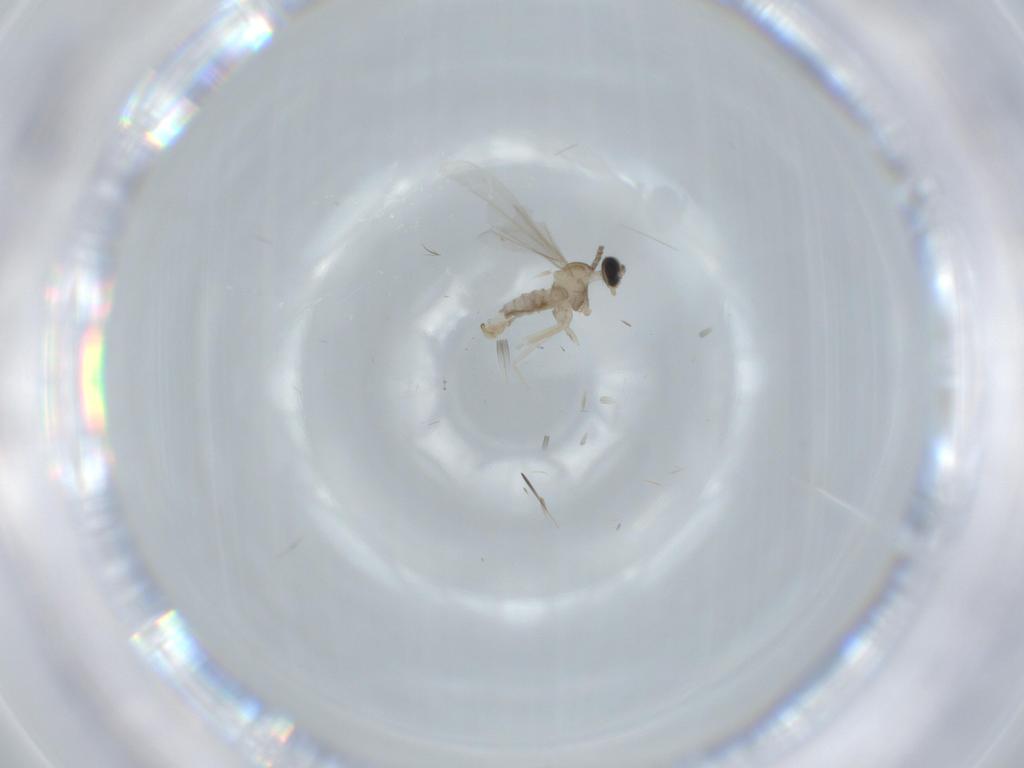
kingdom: Animalia
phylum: Arthropoda
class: Insecta
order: Diptera
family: Cecidomyiidae
